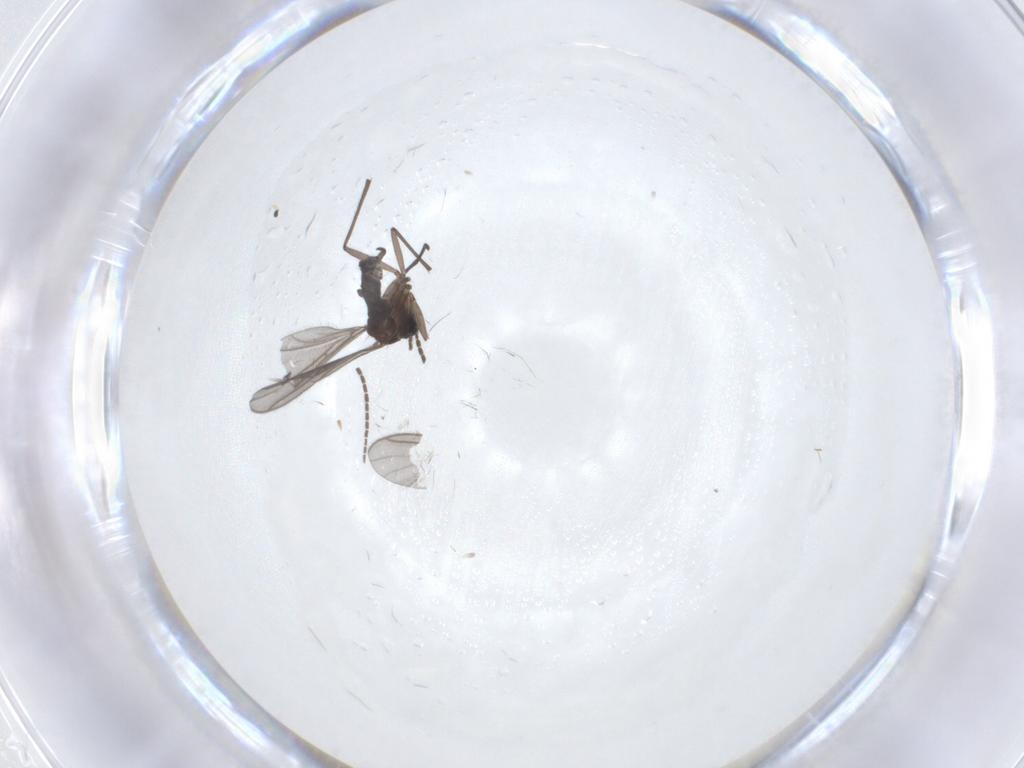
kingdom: Animalia
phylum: Arthropoda
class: Insecta
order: Diptera
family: Sciaridae
